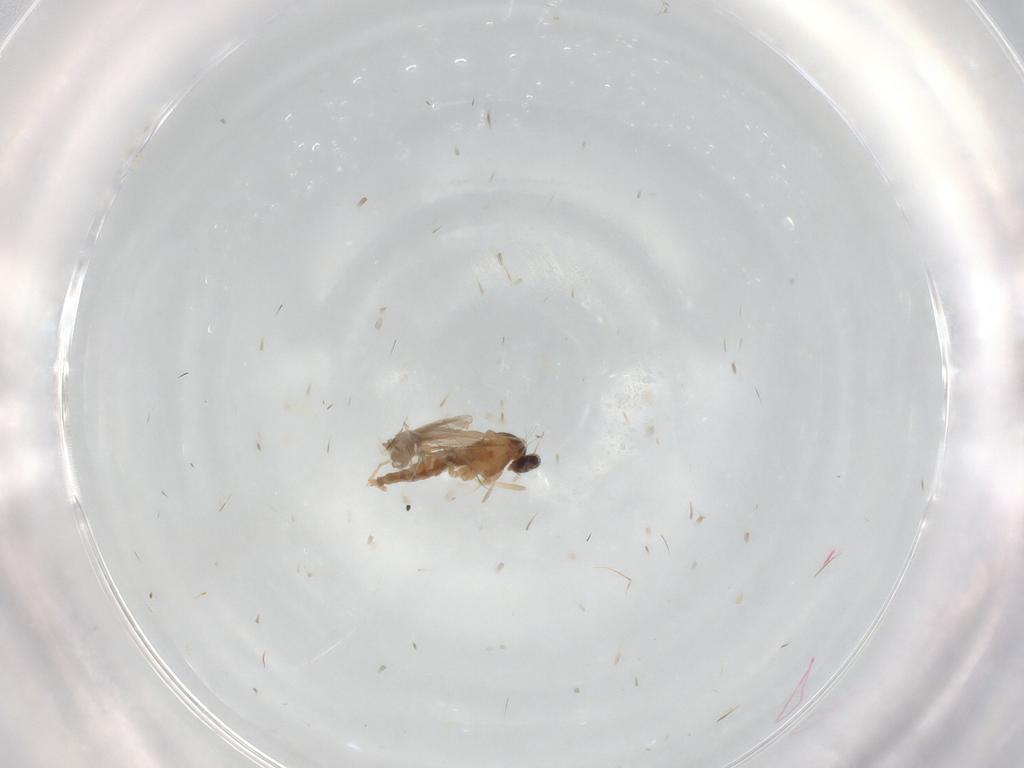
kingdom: Animalia
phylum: Arthropoda
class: Insecta
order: Diptera
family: Cecidomyiidae
